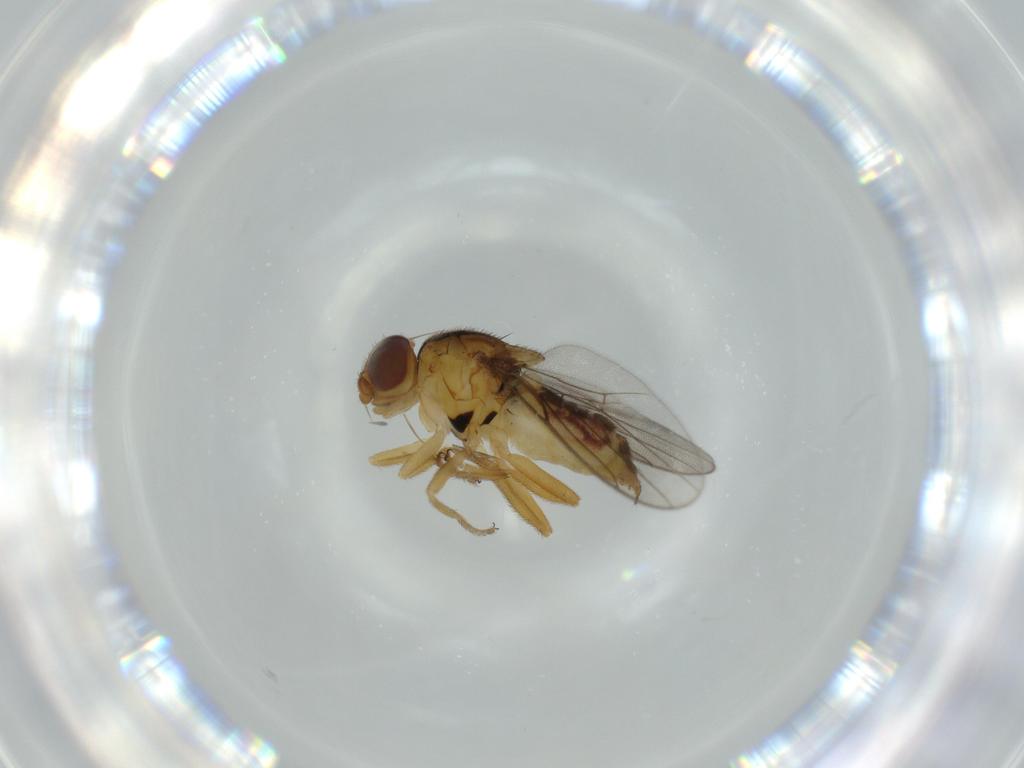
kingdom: Animalia
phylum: Arthropoda
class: Insecta
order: Diptera
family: Chloropidae
